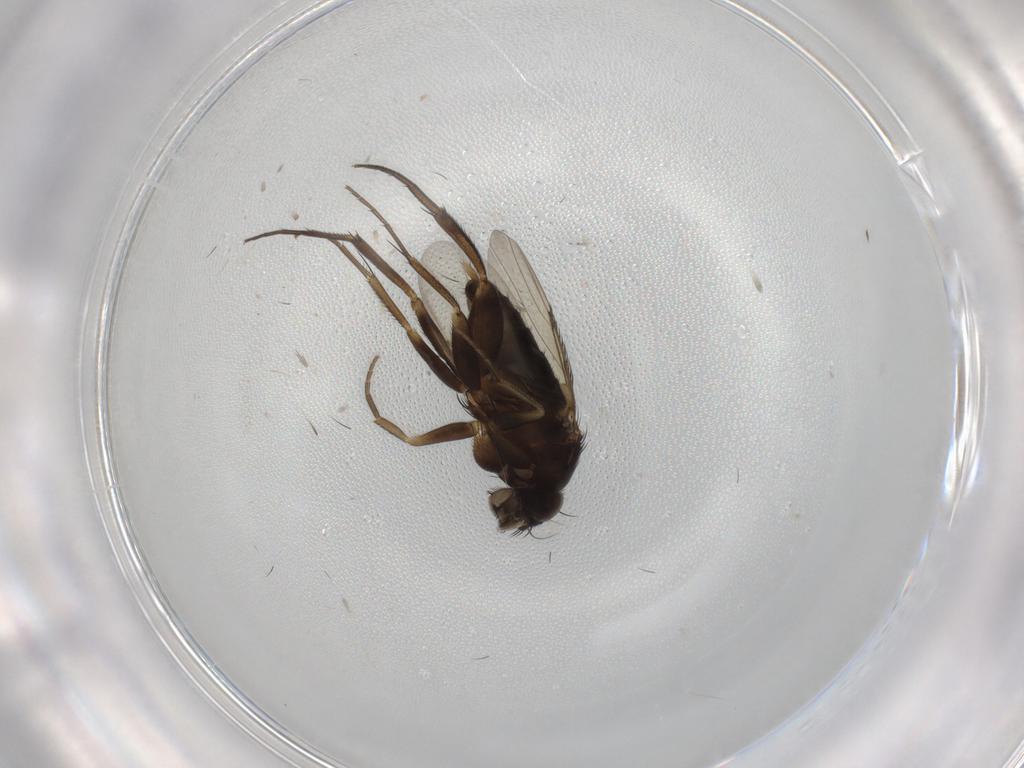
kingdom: Animalia
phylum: Arthropoda
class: Insecta
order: Diptera
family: Phoridae
